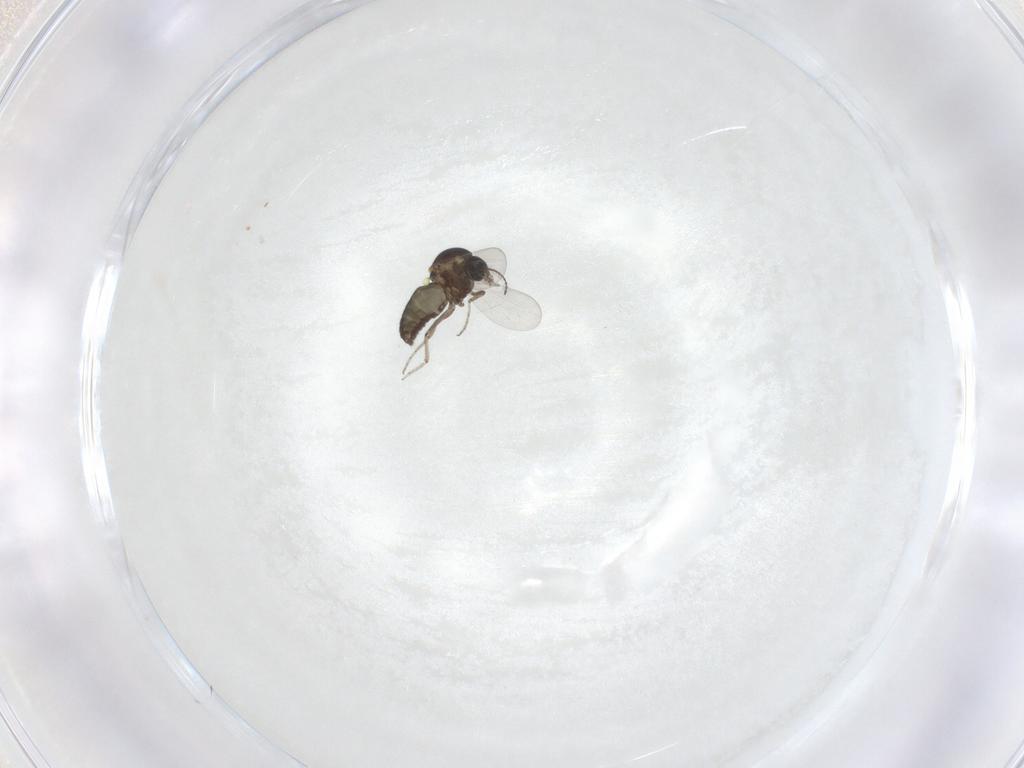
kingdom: Animalia
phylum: Arthropoda
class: Insecta
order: Diptera
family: Ceratopogonidae
